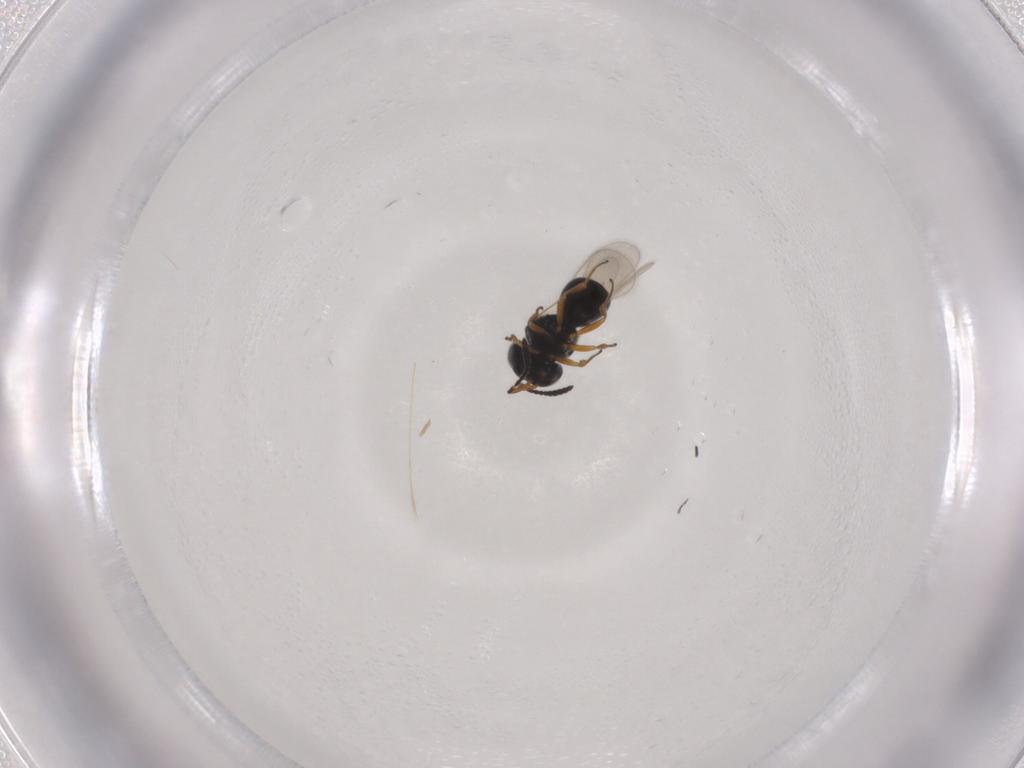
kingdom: Animalia
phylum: Arthropoda
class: Insecta
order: Hymenoptera
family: Scelionidae
